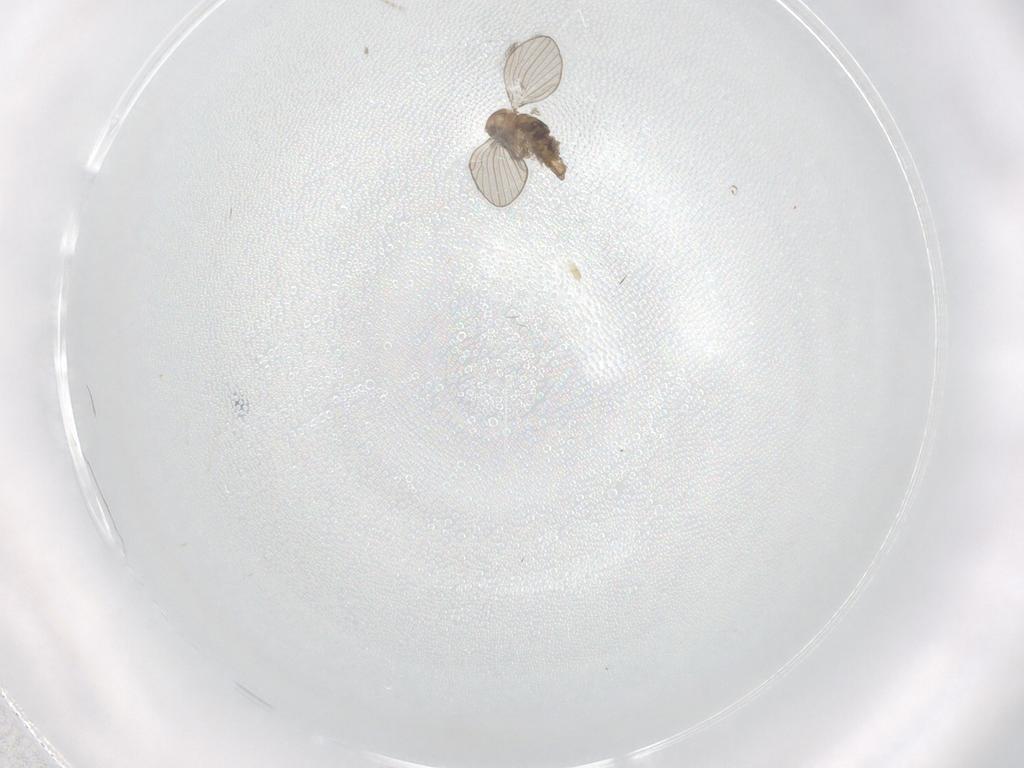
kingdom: Animalia
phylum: Arthropoda
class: Insecta
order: Diptera
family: Psychodidae
